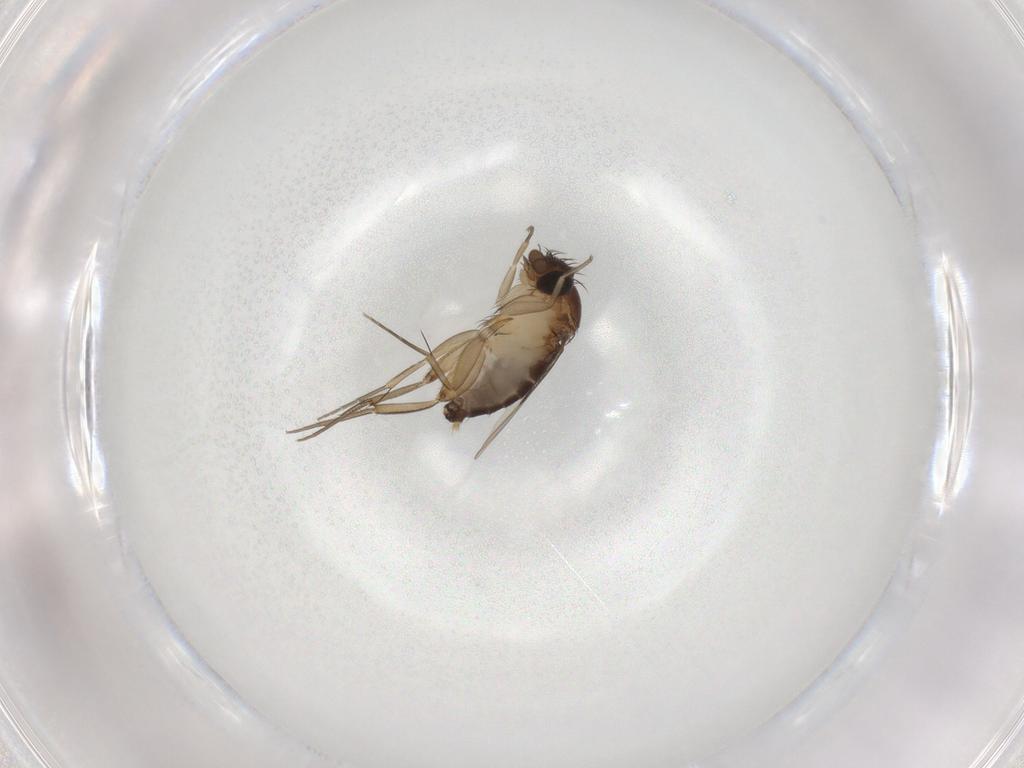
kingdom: Animalia
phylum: Arthropoda
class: Insecta
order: Diptera
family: Phoridae
